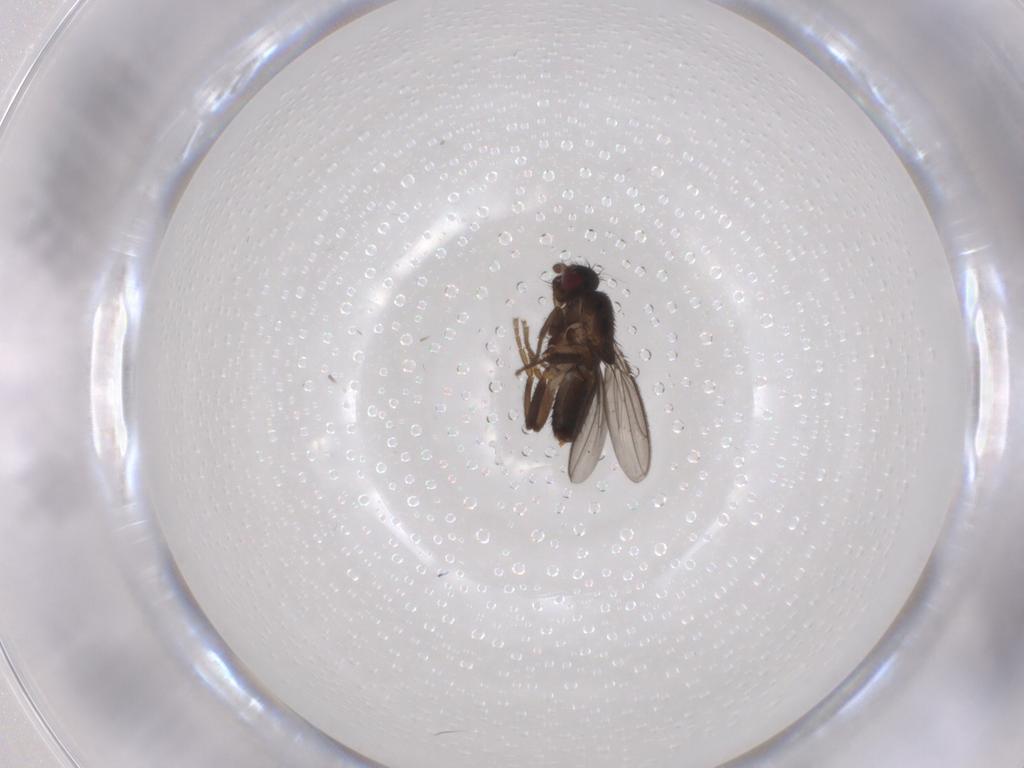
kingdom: Animalia
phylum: Arthropoda
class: Insecta
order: Diptera
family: Sphaeroceridae
